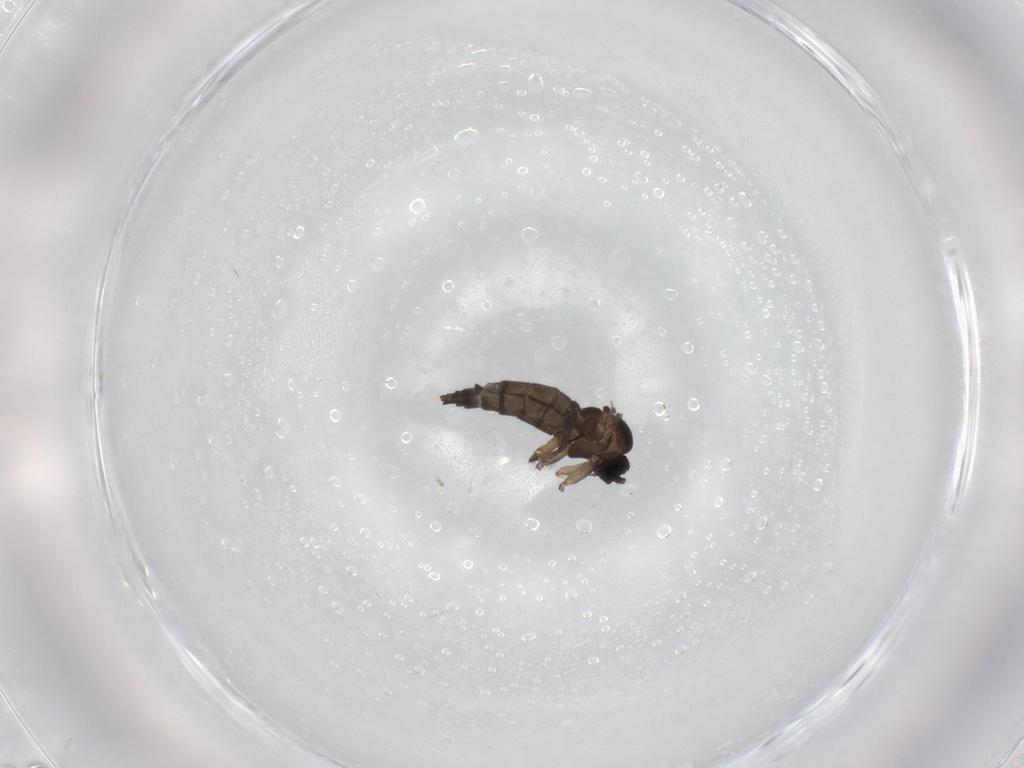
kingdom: Animalia
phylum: Arthropoda
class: Insecta
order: Diptera
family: Sciaridae
